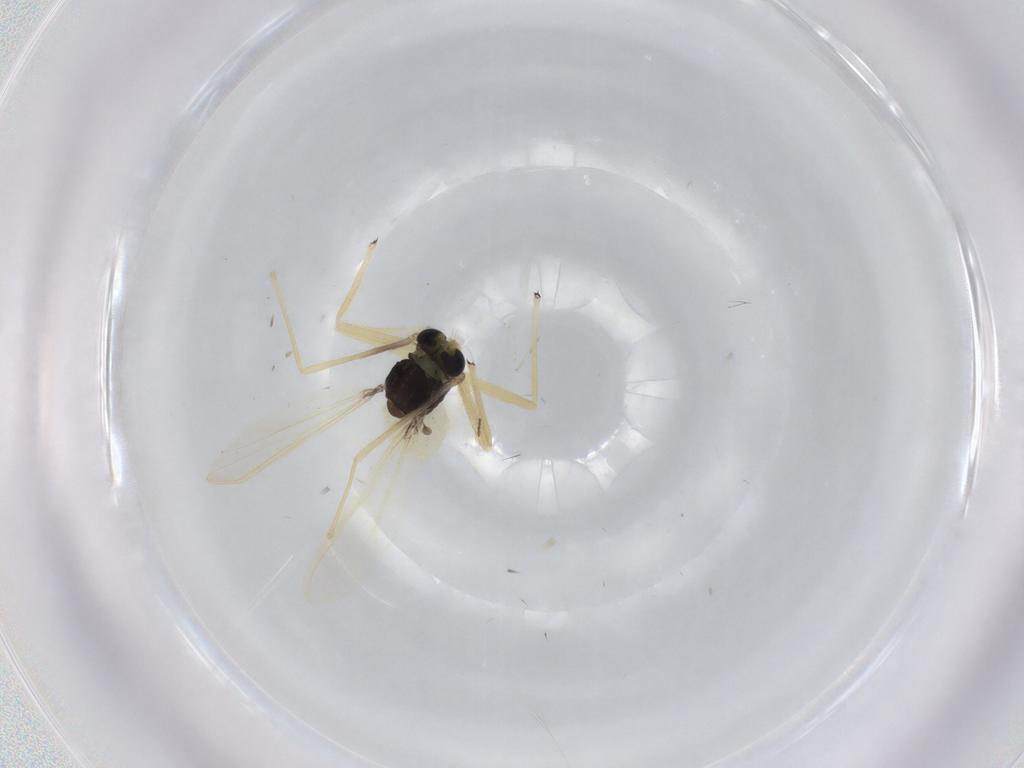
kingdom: Animalia
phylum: Arthropoda
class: Insecta
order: Diptera
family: Chironomidae
